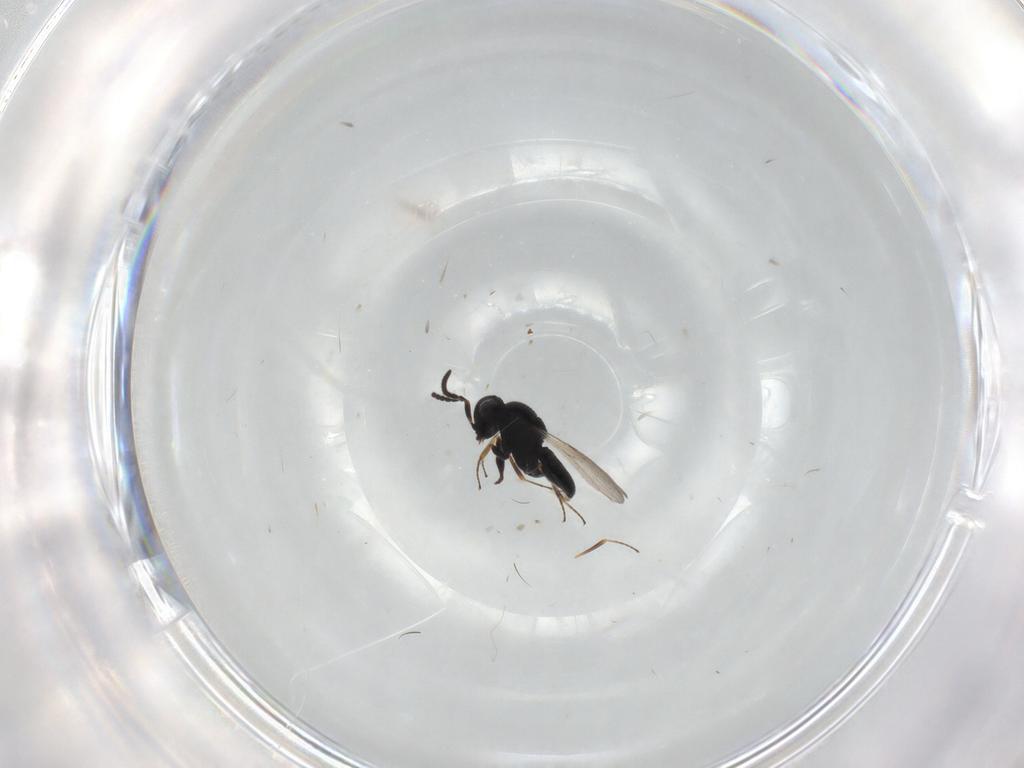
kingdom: Animalia
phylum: Arthropoda
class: Insecta
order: Hymenoptera
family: Scelionidae
